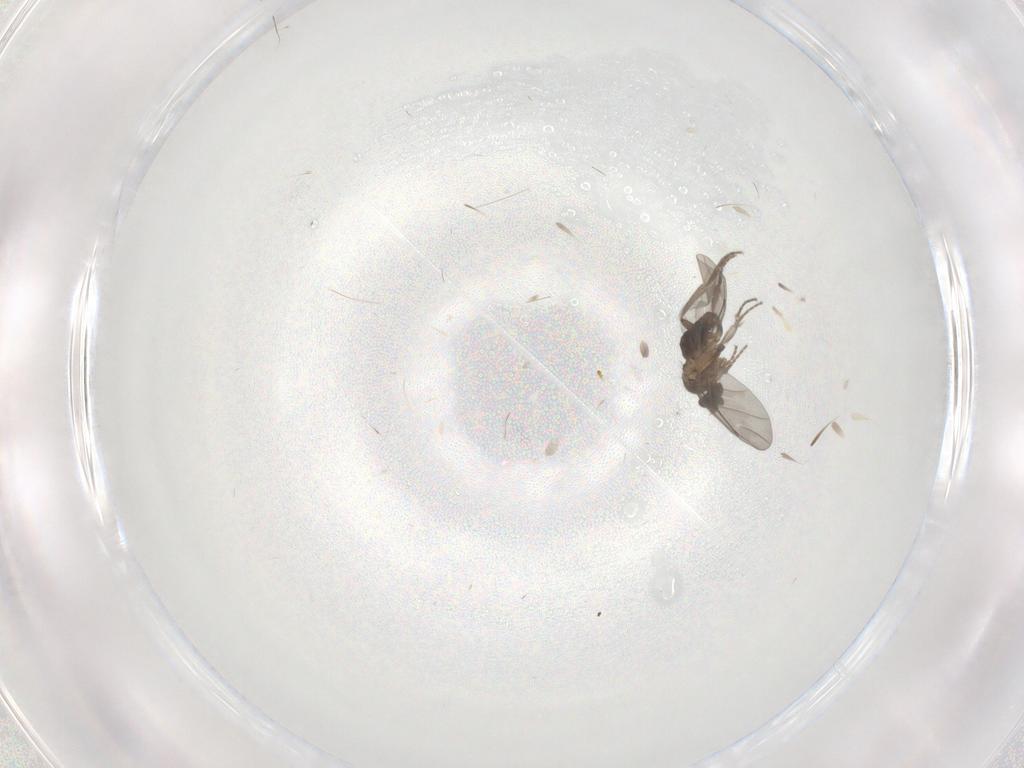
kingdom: Animalia
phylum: Arthropoda
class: Insecta
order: Diptera
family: Phoridae
